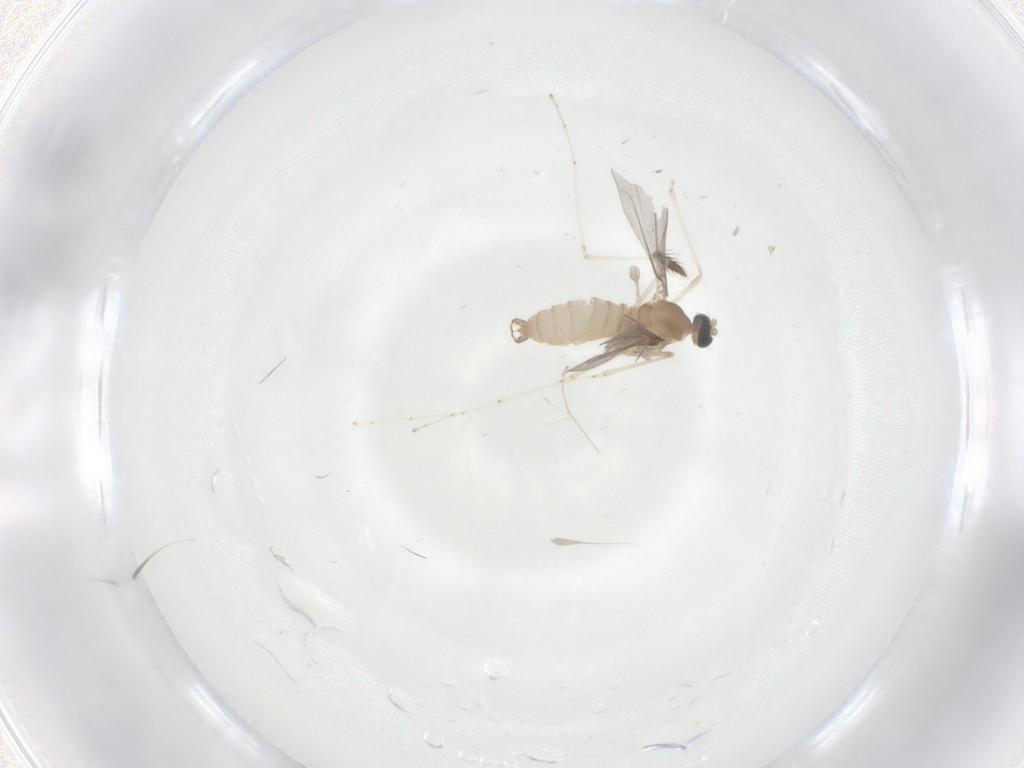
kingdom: Animalia
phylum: Arthropoda
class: Insecta
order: Diptera
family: Cecidomyiidae
